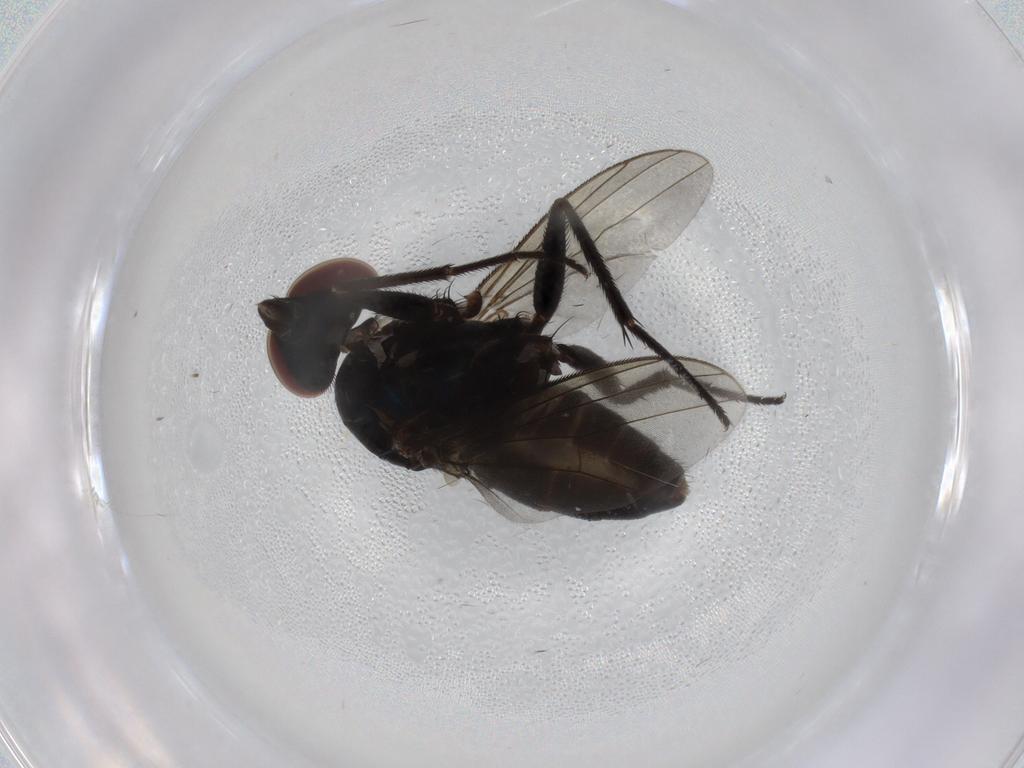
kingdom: Animalia
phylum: Arthropoda
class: Insecta
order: Diptera
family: Dolichopodidae
